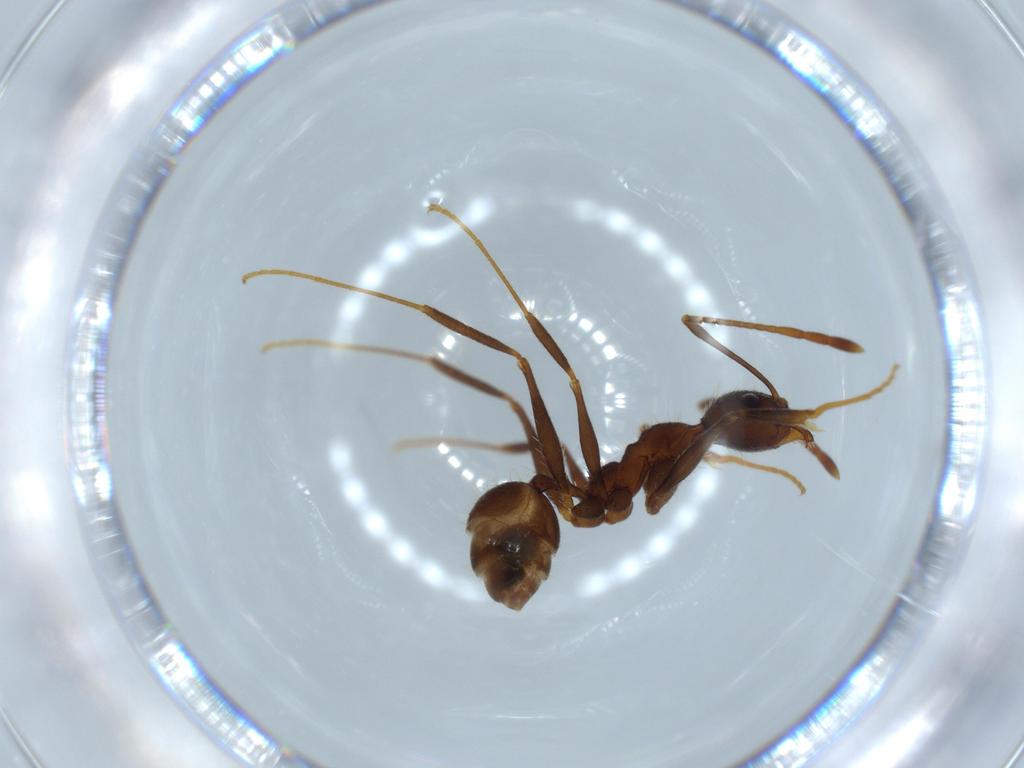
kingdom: Animalia
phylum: Arthropoda
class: Insecta
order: Hymenoptera
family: Formicidae
